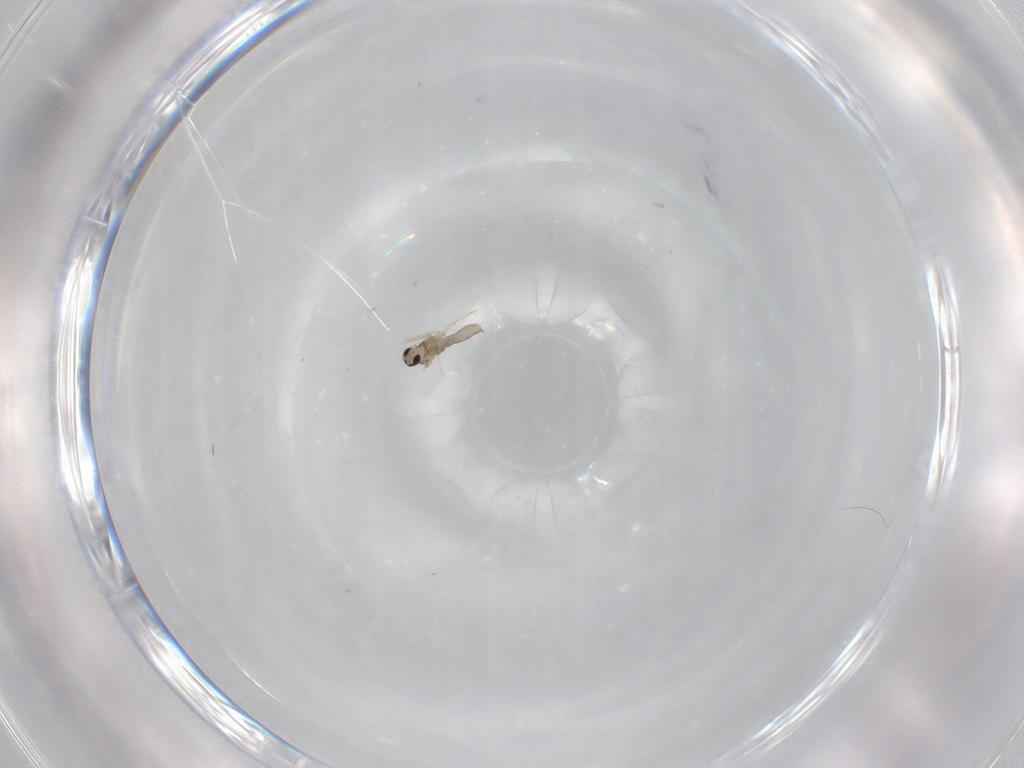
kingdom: Animalia
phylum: Arthropoda
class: Insecta
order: Diptera
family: Cecidomyiidae
